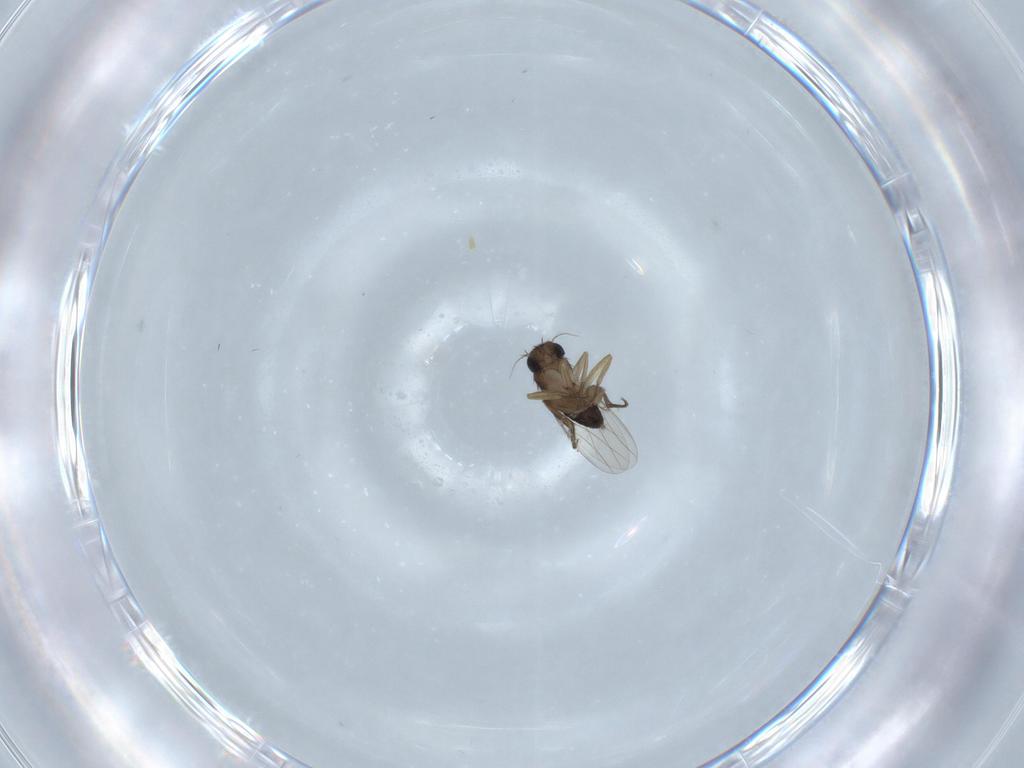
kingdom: Animalia
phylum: Arthropoda
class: Insecta
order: Diptera
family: Phoridae
